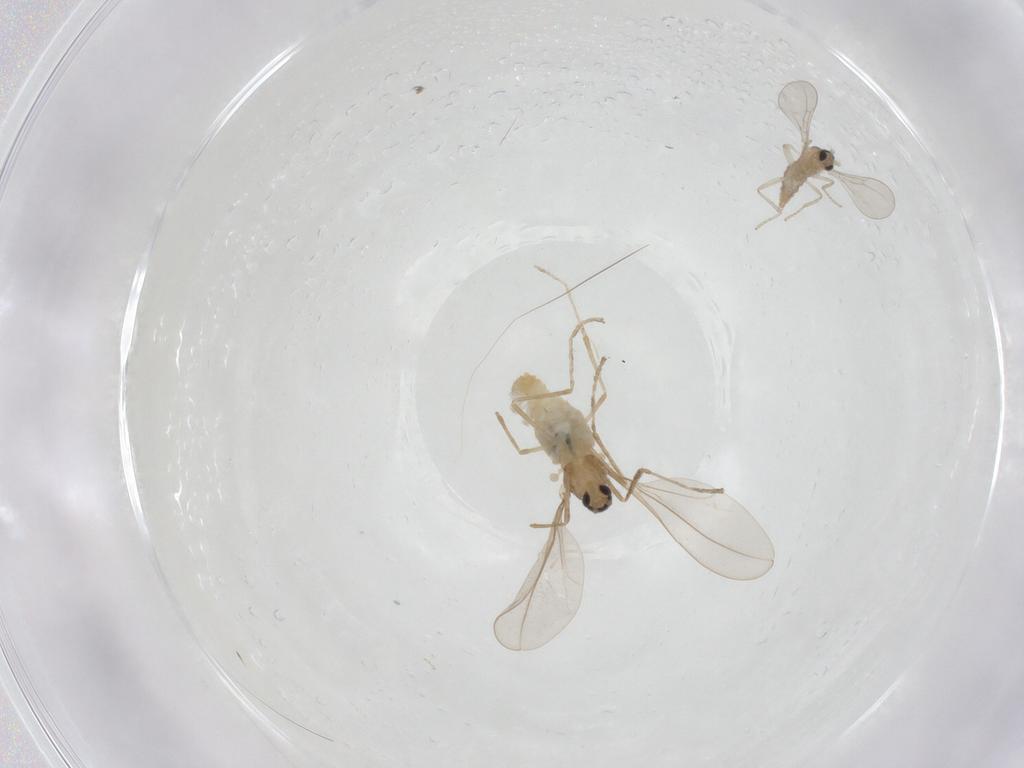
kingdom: Animalia
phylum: Arthropoda
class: Insecta
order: Diptera
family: Cecidomyiidae
